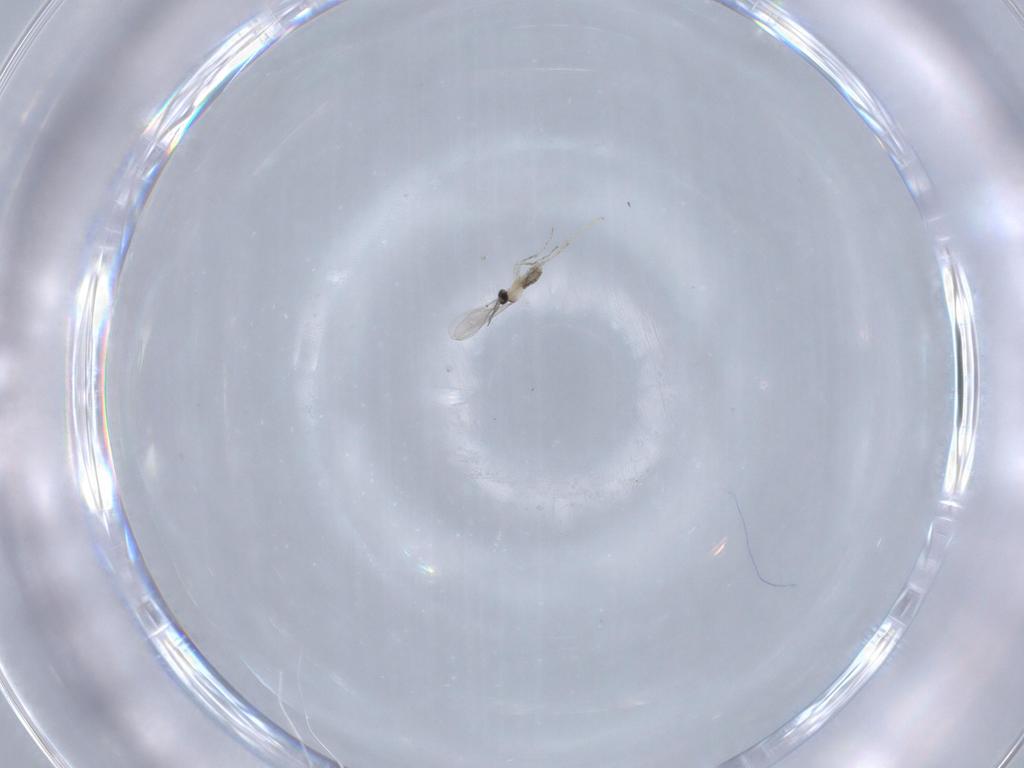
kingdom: Animalia
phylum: Arthropoda
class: Insecta
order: Diptera
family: Cecidomyiidae
